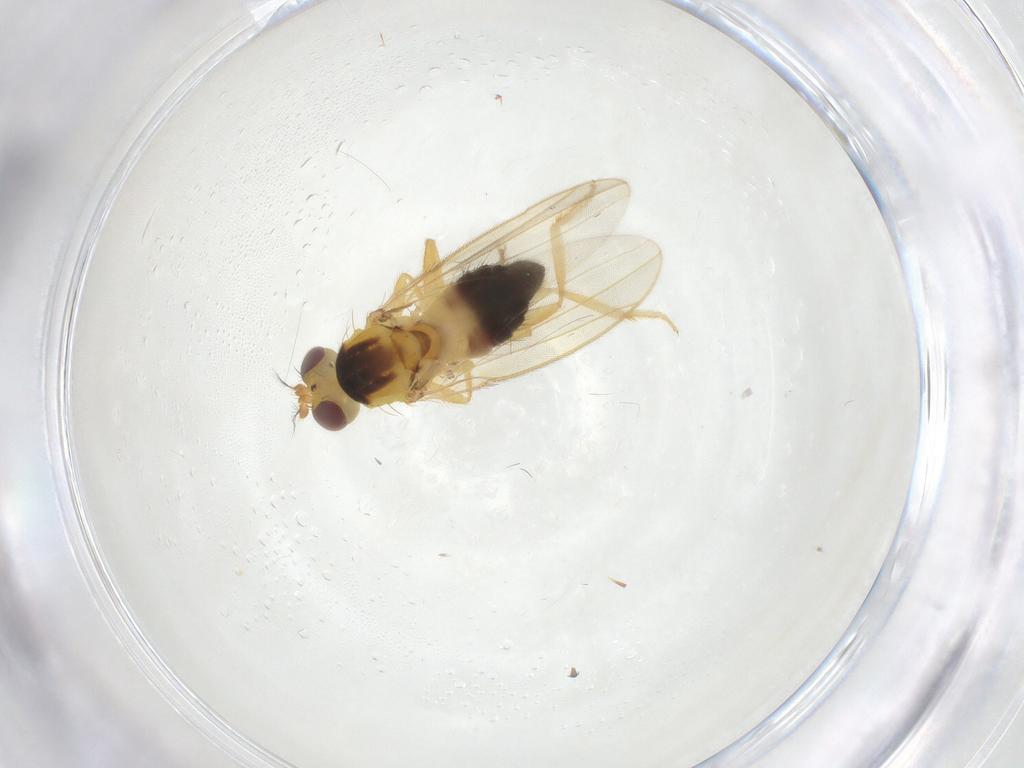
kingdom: Animalia
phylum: Arthropoda
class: Insecta
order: Diptera
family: Periscelididae
